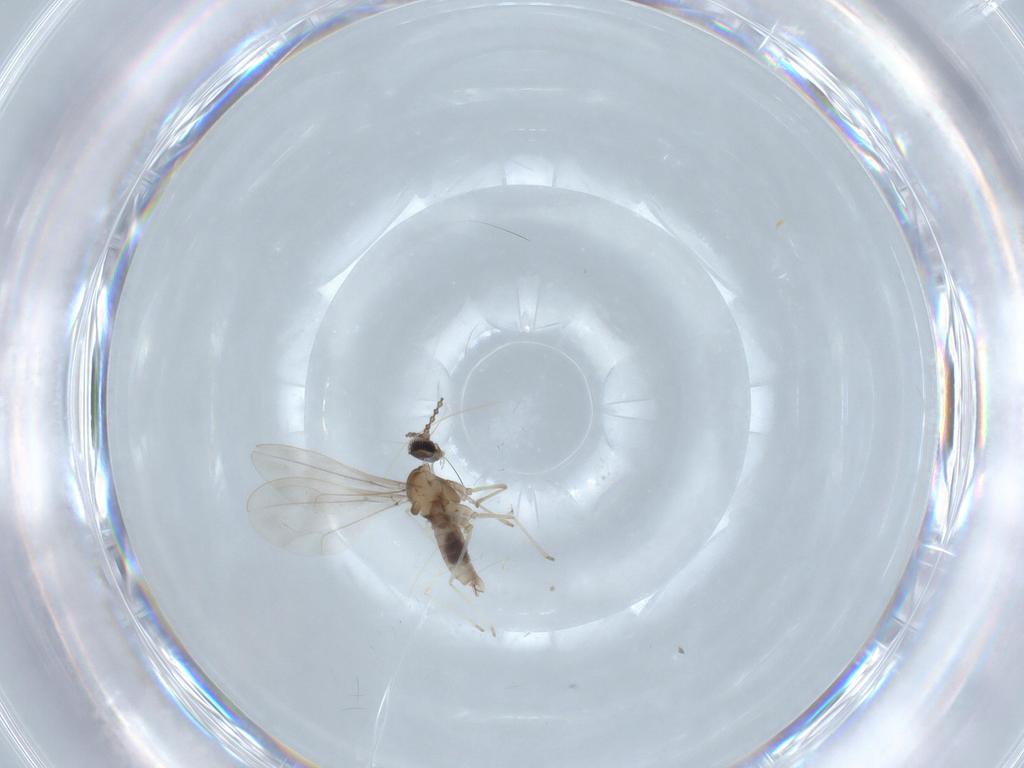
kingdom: Animalia
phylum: Arthropoda
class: Insecta
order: Diptera
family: Cecidomyiidae
